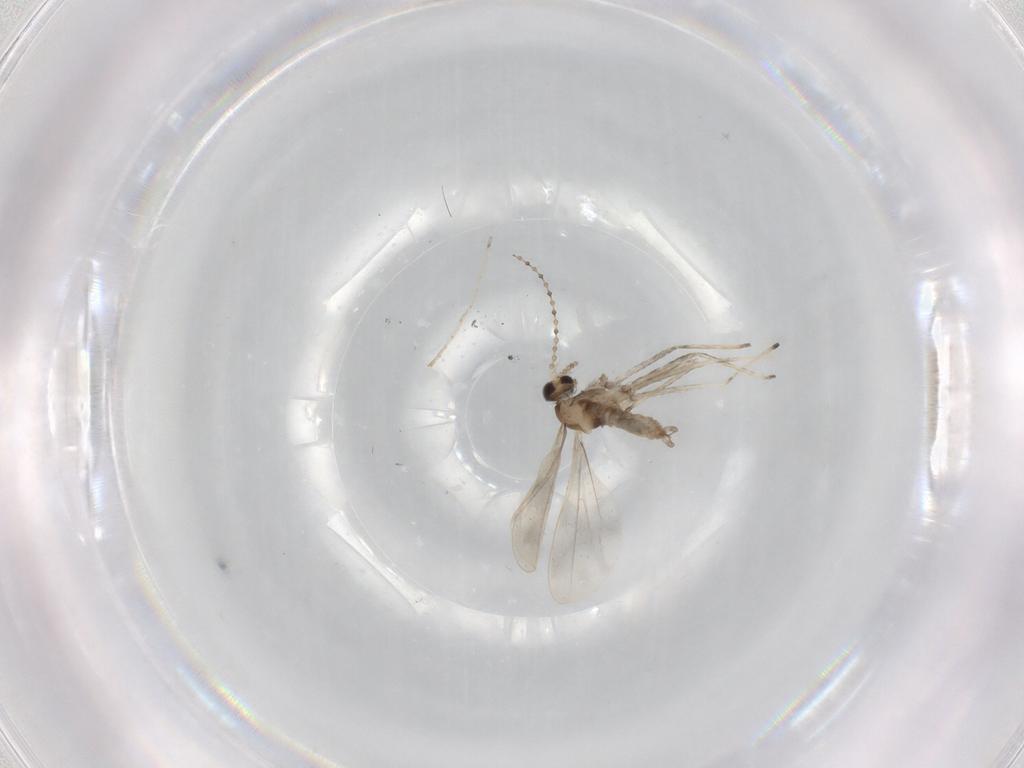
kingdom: Animalia
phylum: Arthropoda
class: Insecta
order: Diptera
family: Cecidomyiidae
